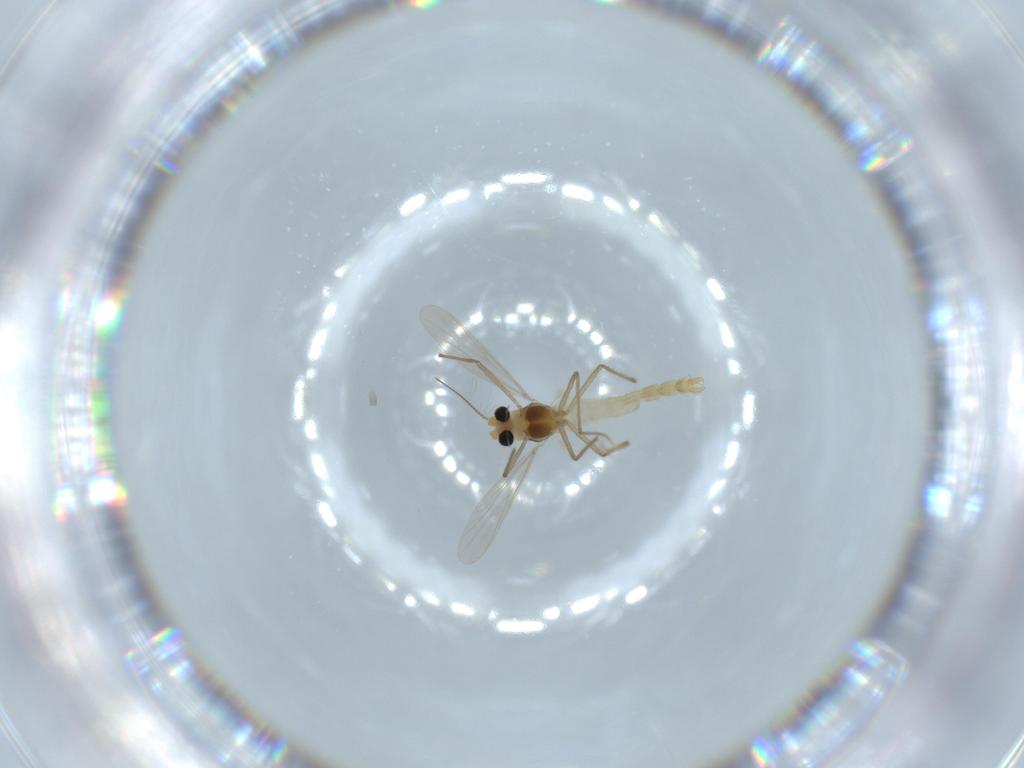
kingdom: Animalia
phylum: Arthropoda
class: Insecta
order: Diptera
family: Chironomidae
